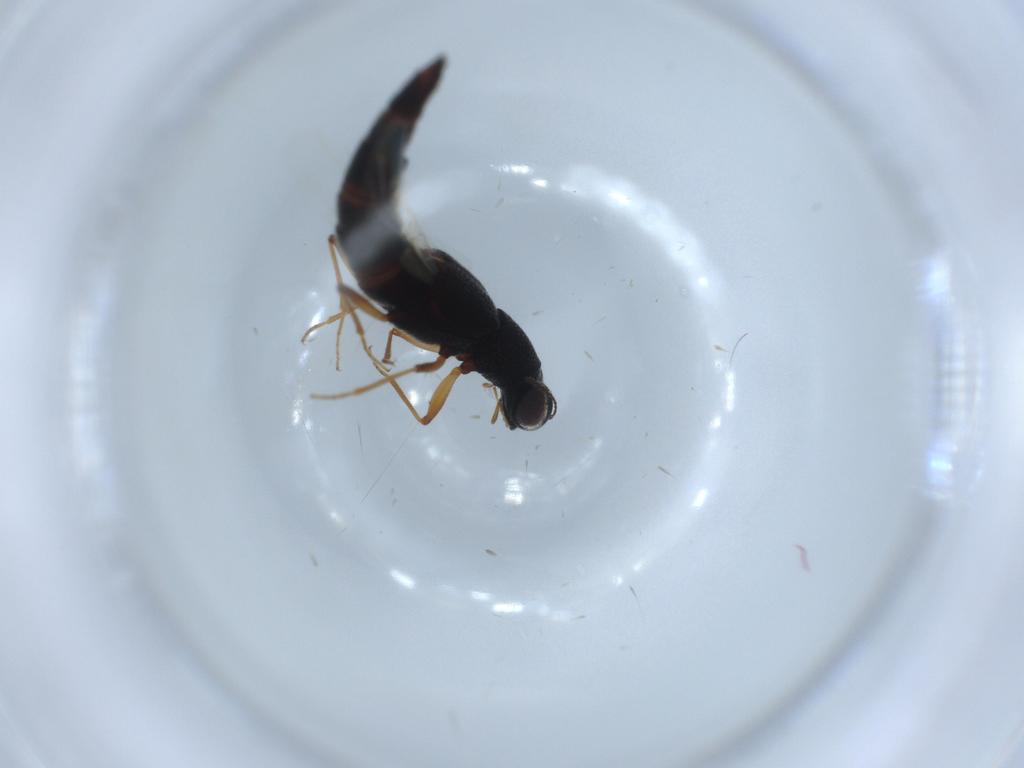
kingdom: Animalia
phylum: Arthropoda
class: Insecta
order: Coleoptera
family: Staphylinidae
